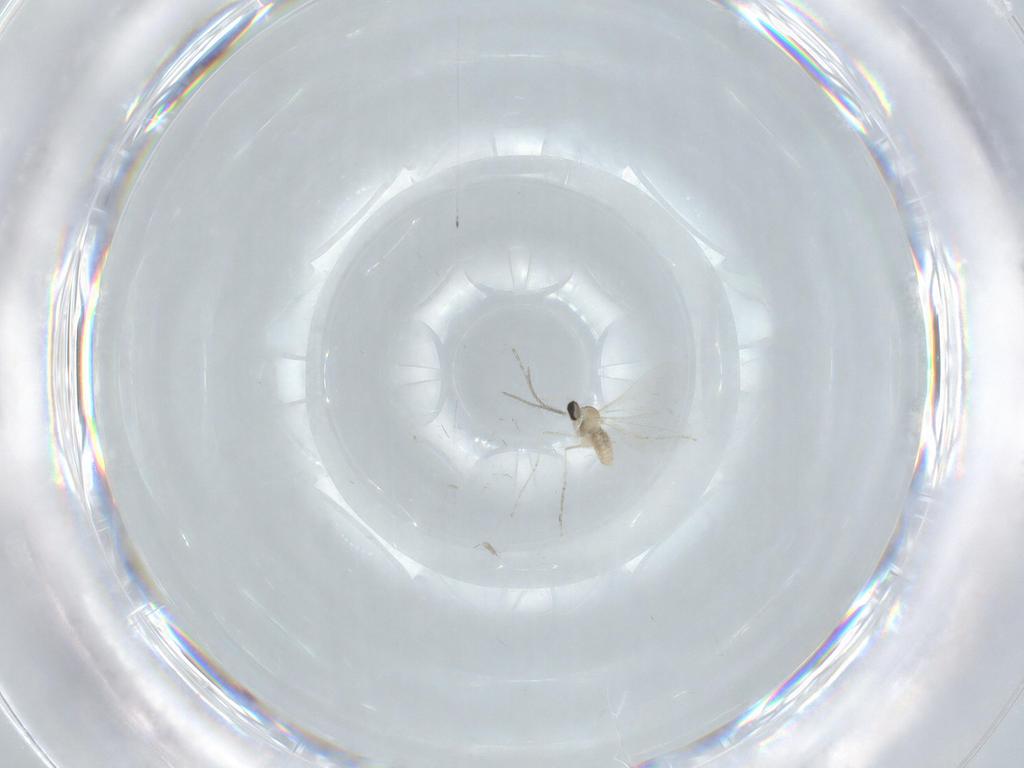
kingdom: Animalia
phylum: Arthropoda
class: Insecta
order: Diptera
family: Cecidomyiidae
